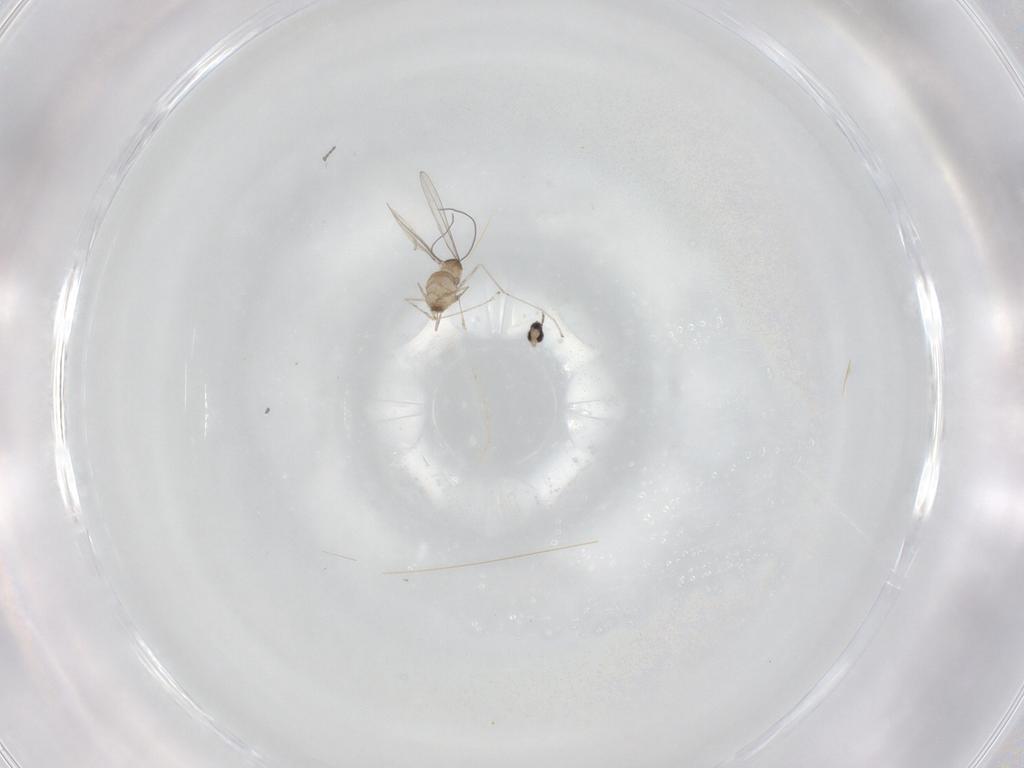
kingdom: Animalia
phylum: Arthropoda
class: Insecta
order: Diptera
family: Cecidomyiidae
